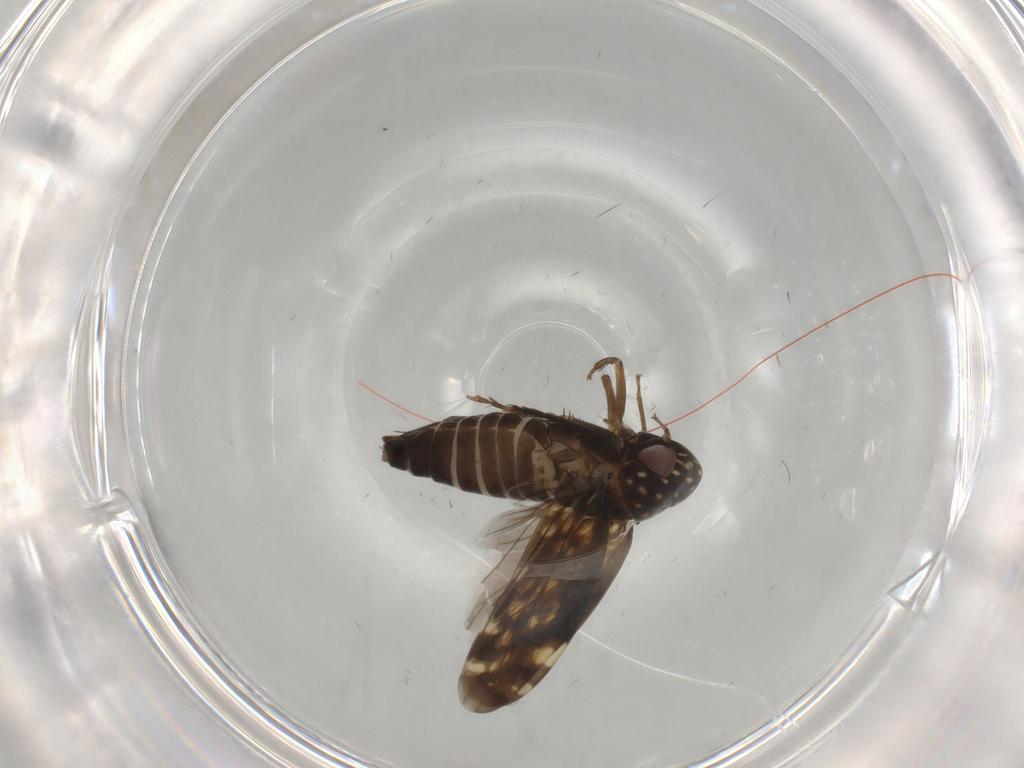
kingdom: Animalia
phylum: Arthropoda
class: Insecta
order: Hemiptera
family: Cicadellidae
